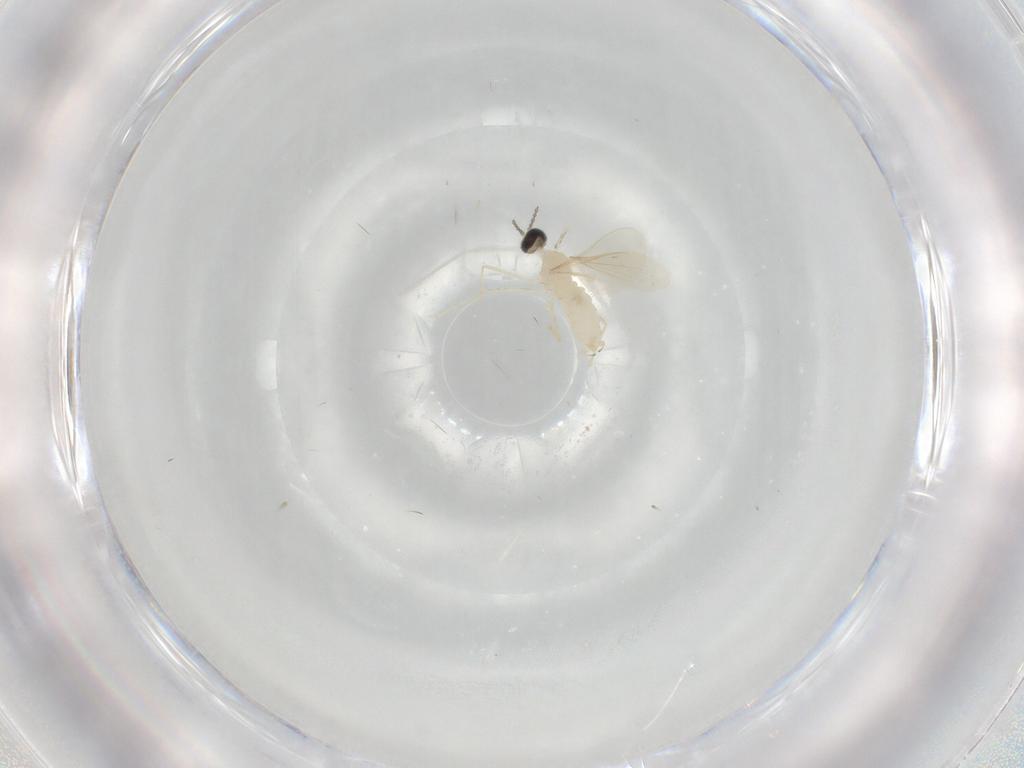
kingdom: Animalia
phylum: Arthropoda
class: Insecta
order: Diptera
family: Cecidomyiidae
